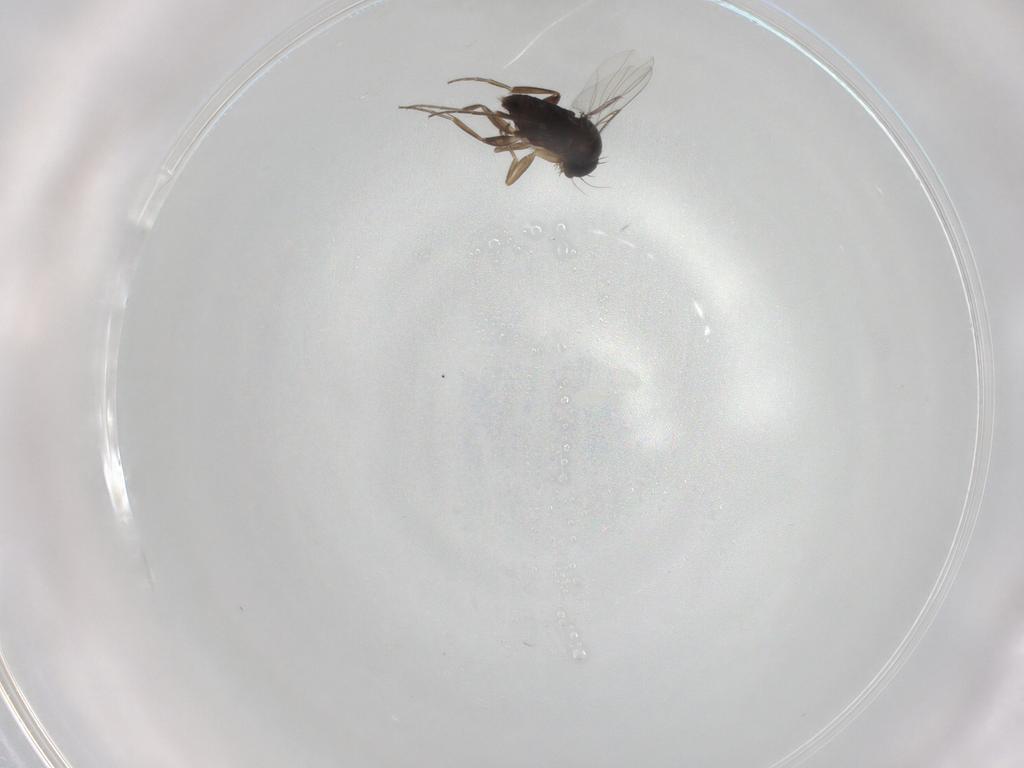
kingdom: Animalia
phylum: Arthropoda
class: Insecta
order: Diptera
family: Phoridae
